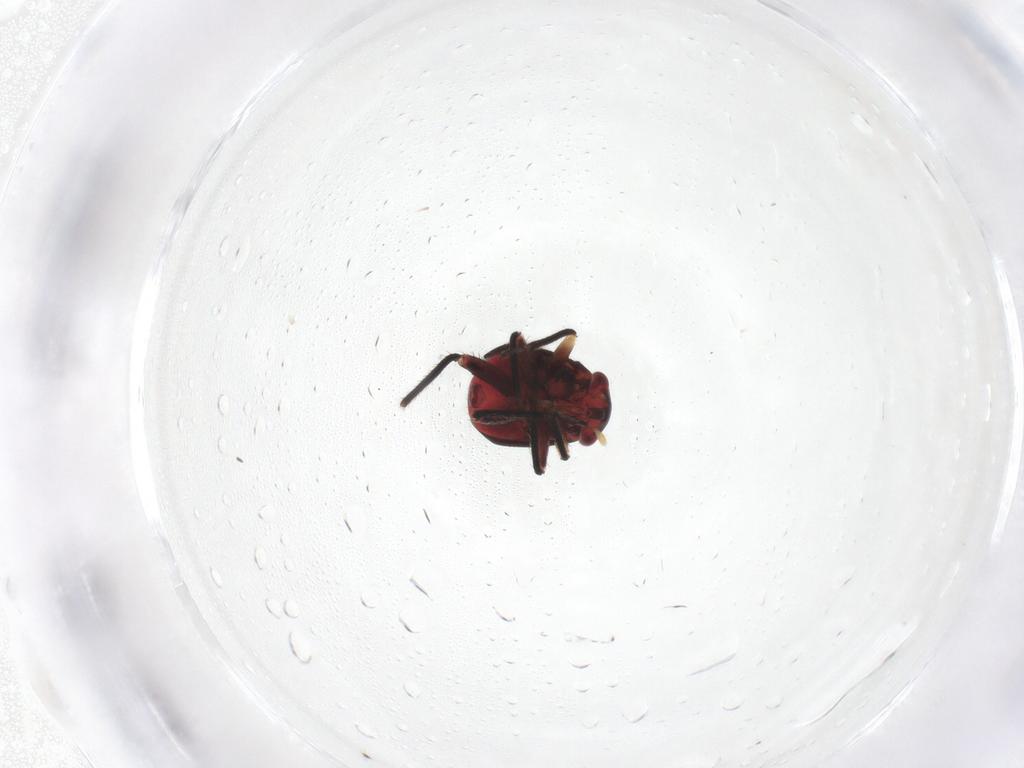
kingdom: Animalia
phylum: Arthropoda
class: Insecta
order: Hemiptera
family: Miridae
